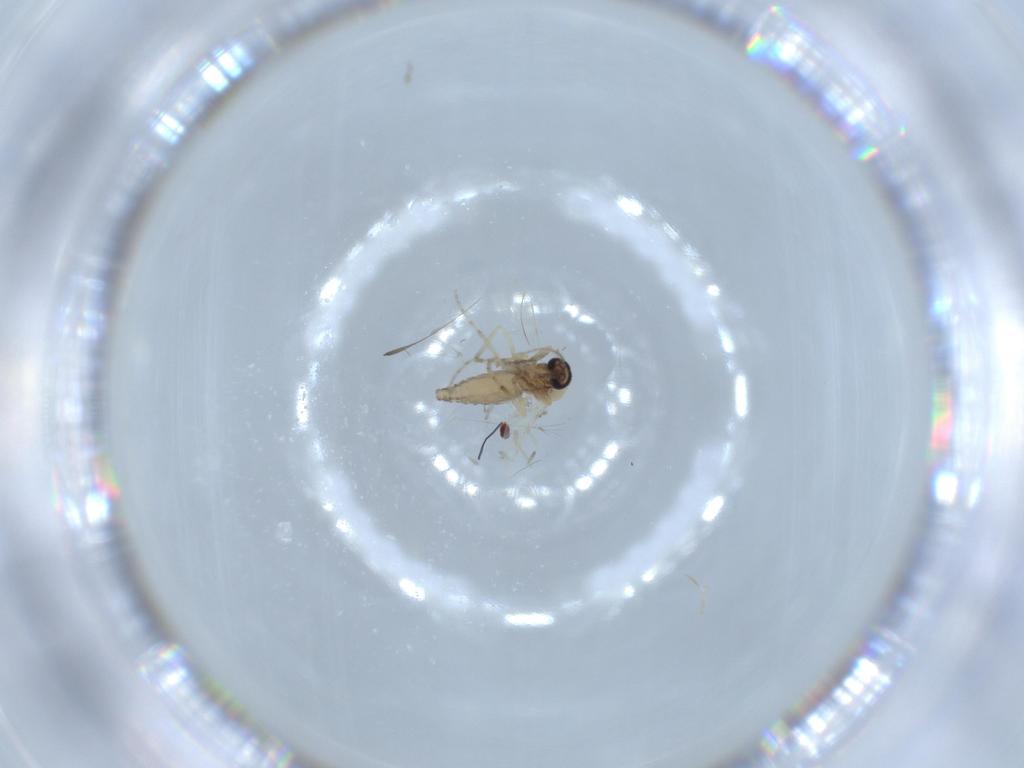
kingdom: Animalia
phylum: Arthropoda
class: Insecta
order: Diptera
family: Ceratopogonidae
